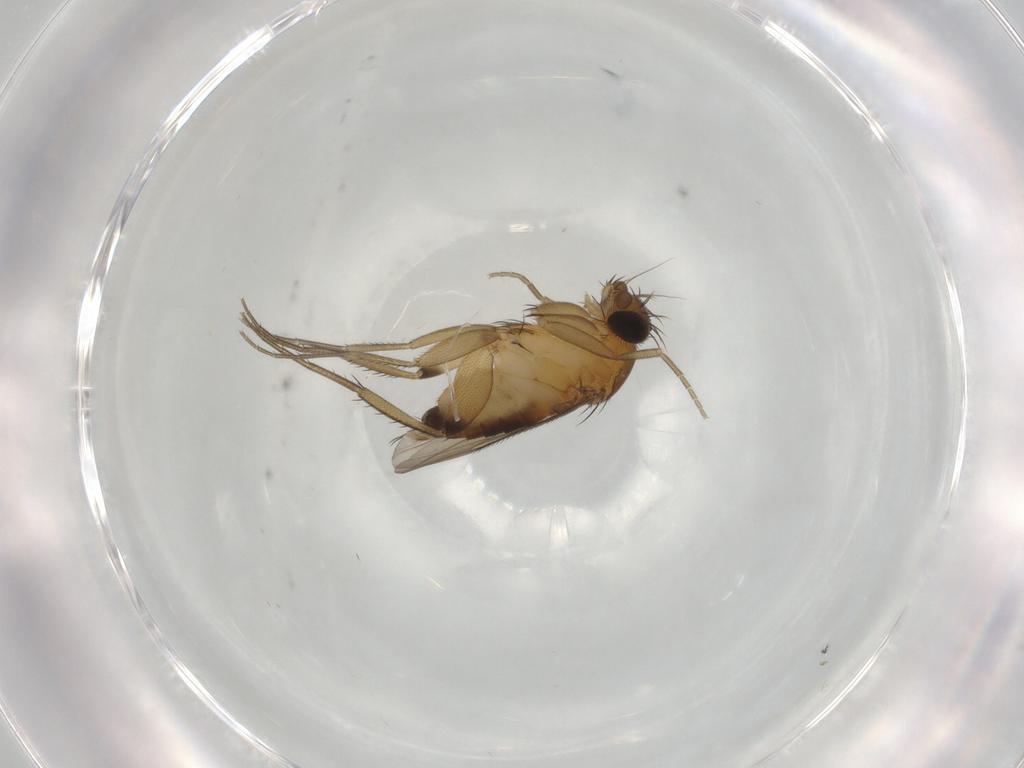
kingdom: Animalia
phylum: Arthropoda
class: Insecta
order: Diptera
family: Phoridae
